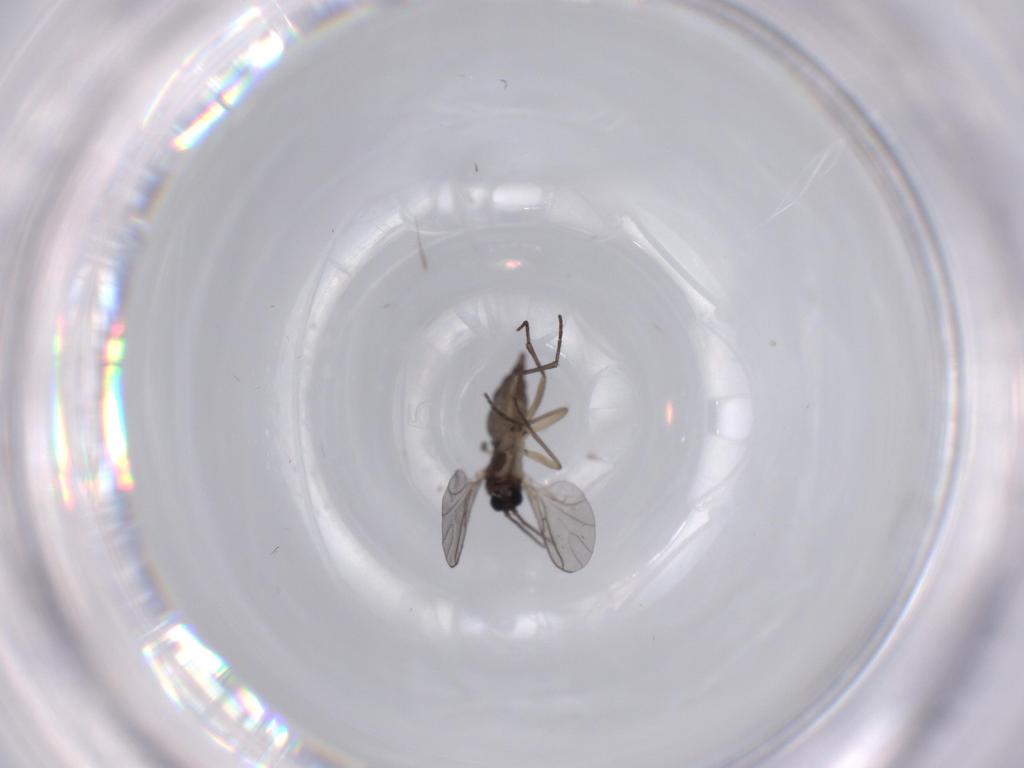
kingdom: Animalia
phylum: Arthropoda
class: Insecta
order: Diptera
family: Sciaridae
